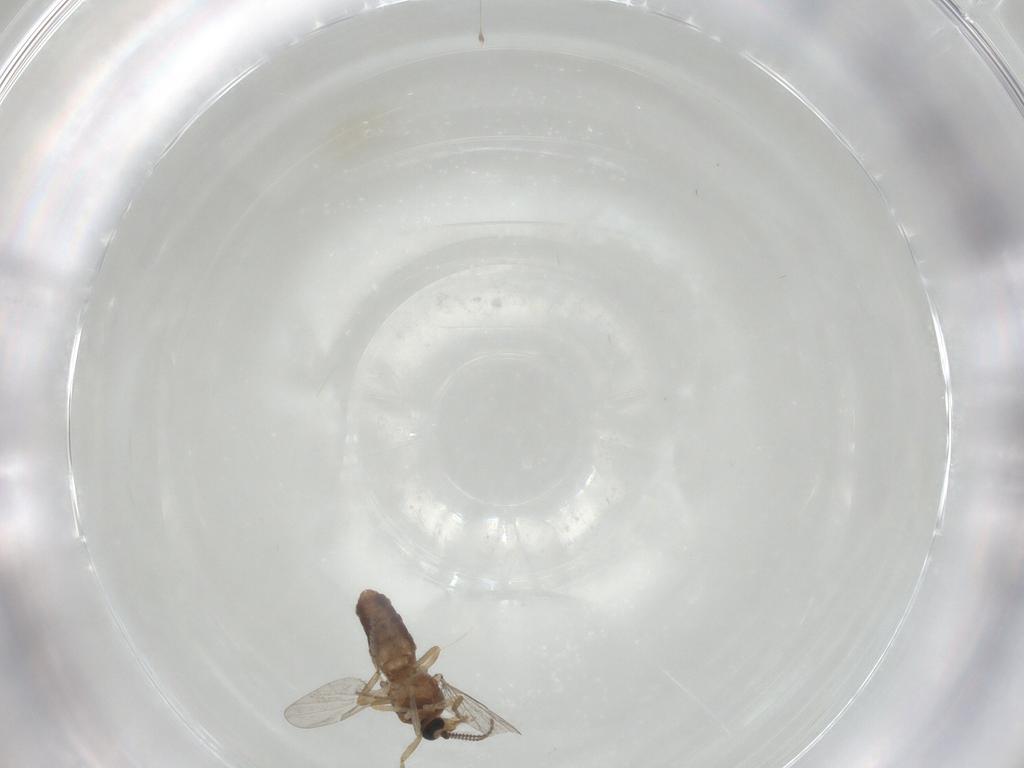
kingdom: Animalia
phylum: Arthropoda
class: Insecta
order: Diptera
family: Ceratopogonidae
